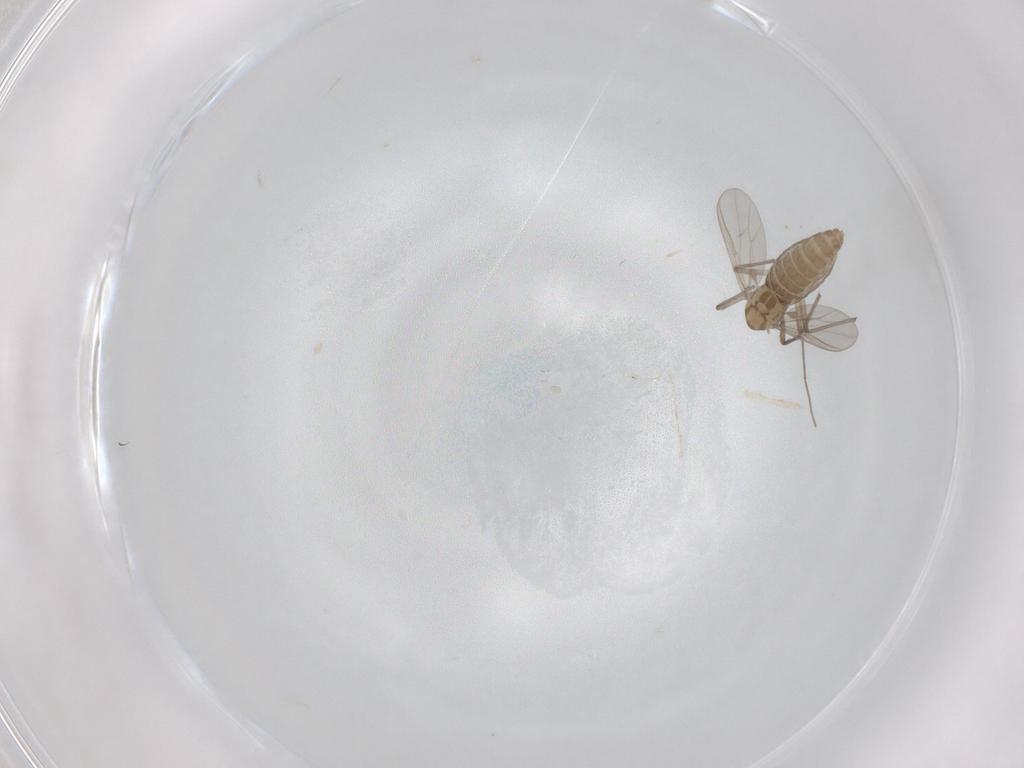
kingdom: Animalia
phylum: Arthropoda
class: Insecta
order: Diptera
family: Chironomidae
